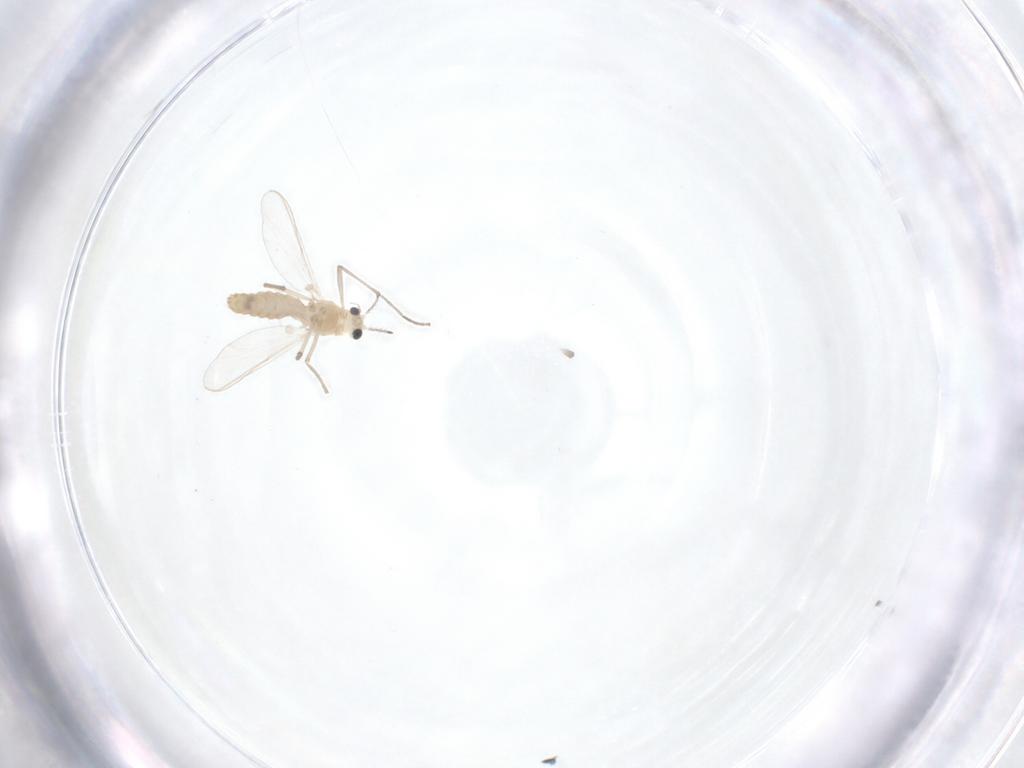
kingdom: Animalia
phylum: Arthropoda
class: Insecta
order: Diptera
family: Chironomidae
